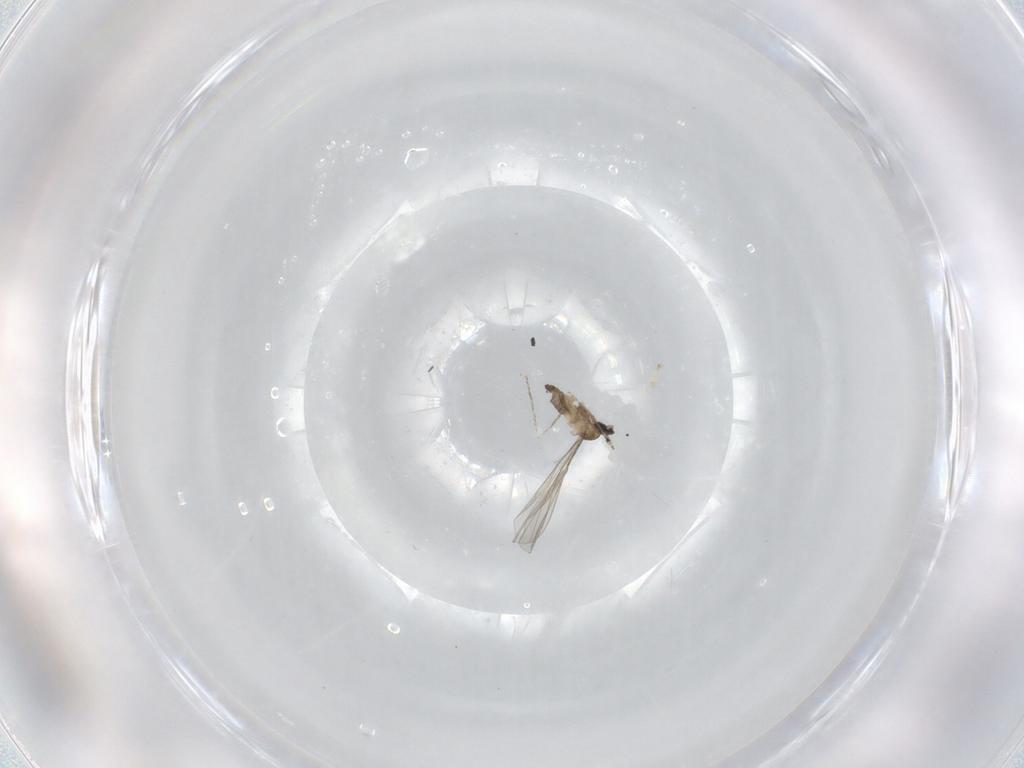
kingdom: Animalia
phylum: Arthropoda
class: Insecta
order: Diptera
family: Cecidomyiidae
